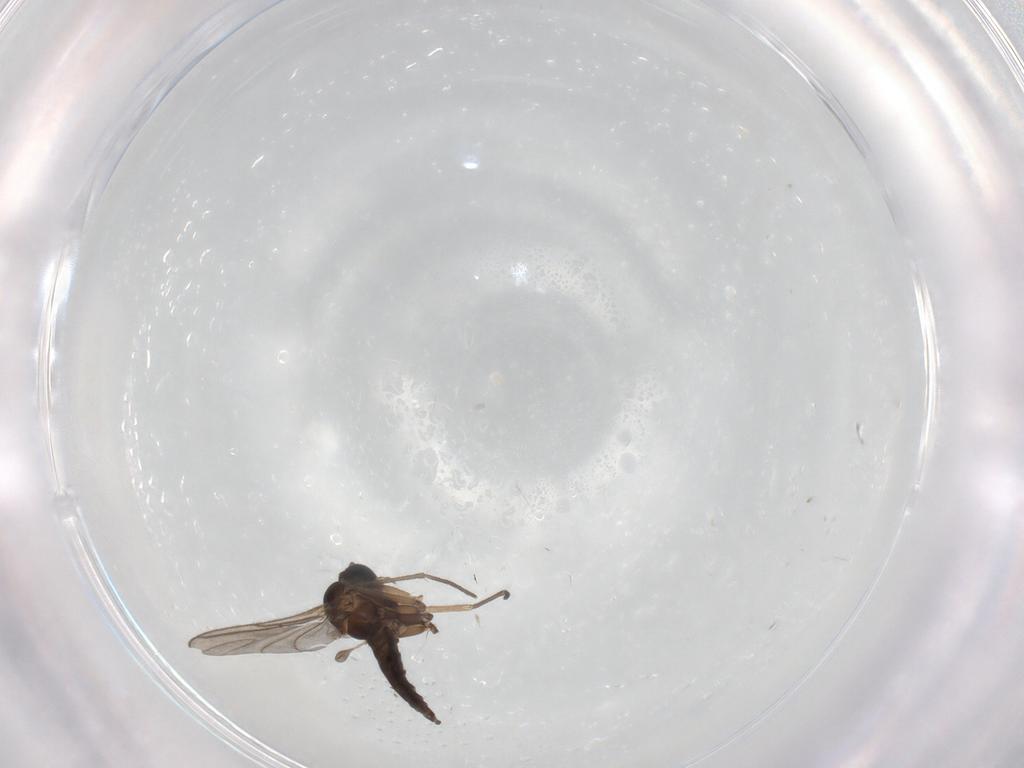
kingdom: Animalia
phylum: Arthropoda
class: Insecta
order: Diptera
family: Sciaridae
